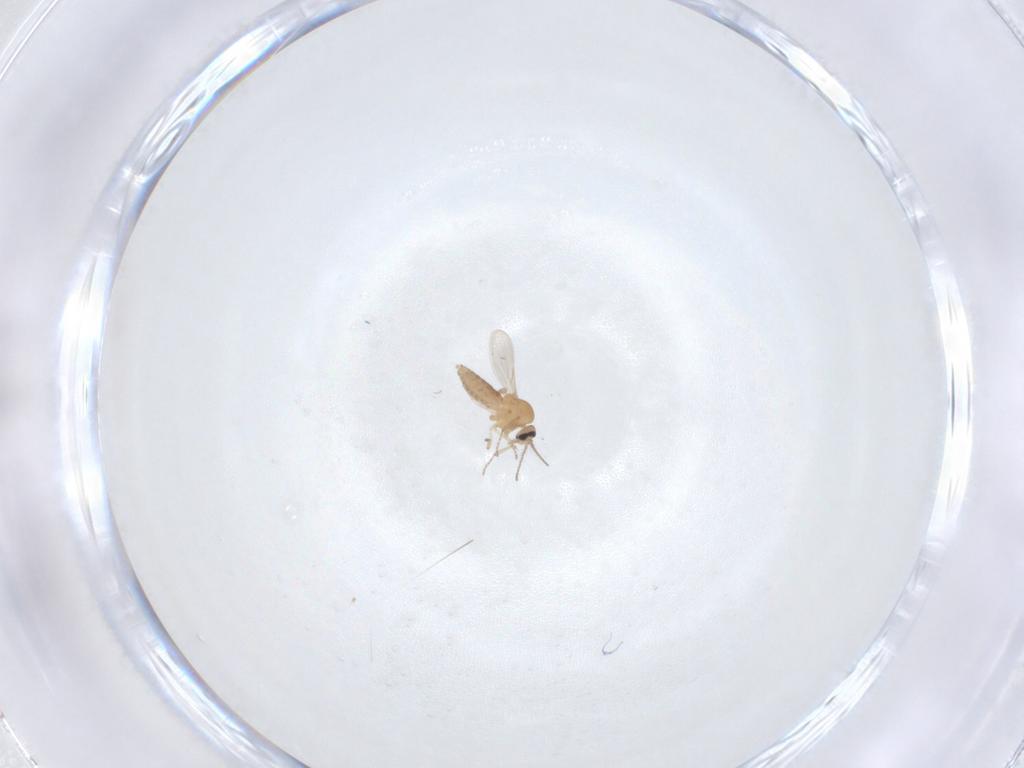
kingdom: Animalia
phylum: Arthropoda
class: Insecta
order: Diptera
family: Ceratopogonidae
